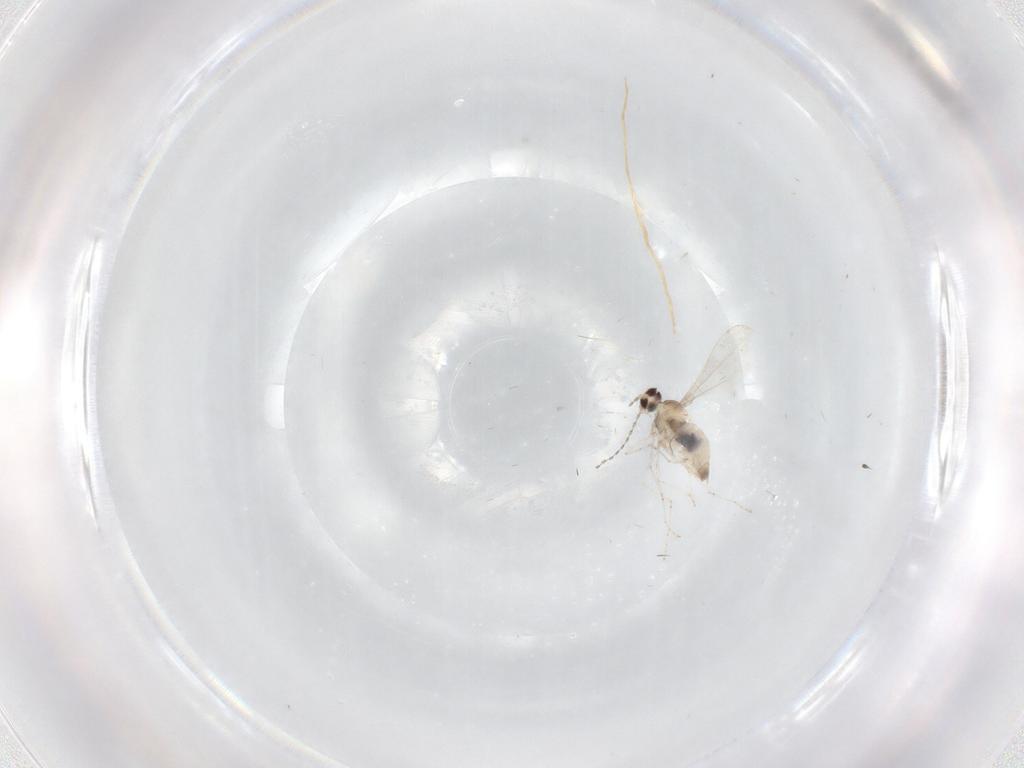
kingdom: Animalia
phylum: Arthropoda
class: Insecta
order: Diptera
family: Cecidomyiidae
